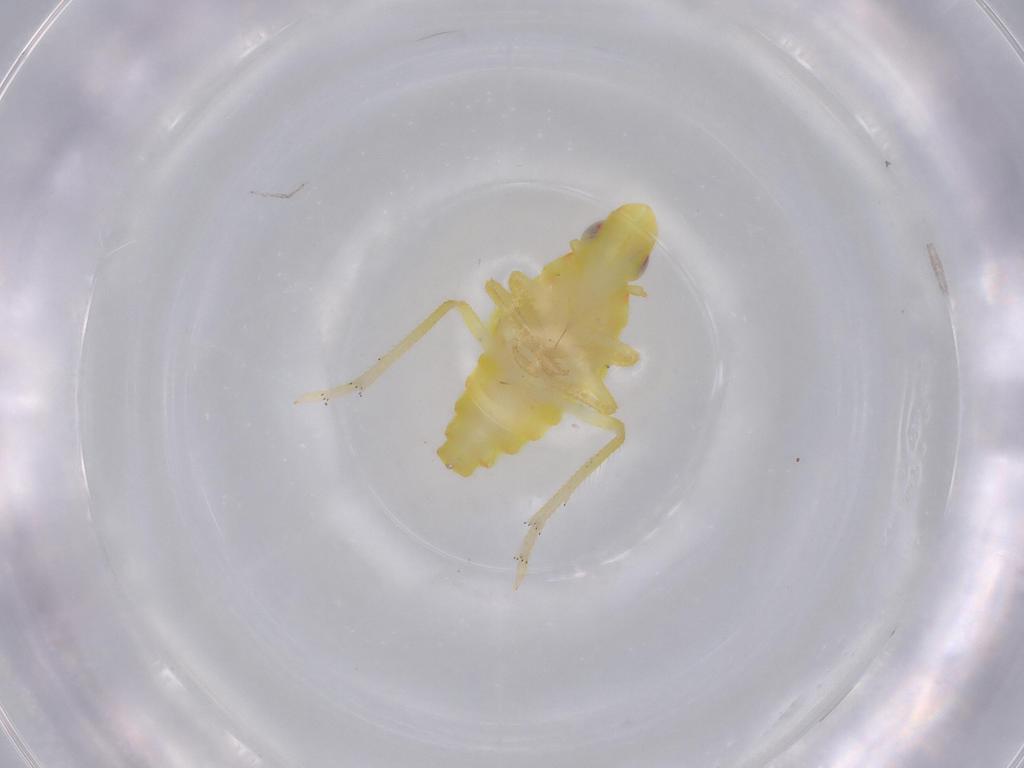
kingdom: Animalia
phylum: Arthropoda
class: Insecta
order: Hemiptera
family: Tropiduchidae
